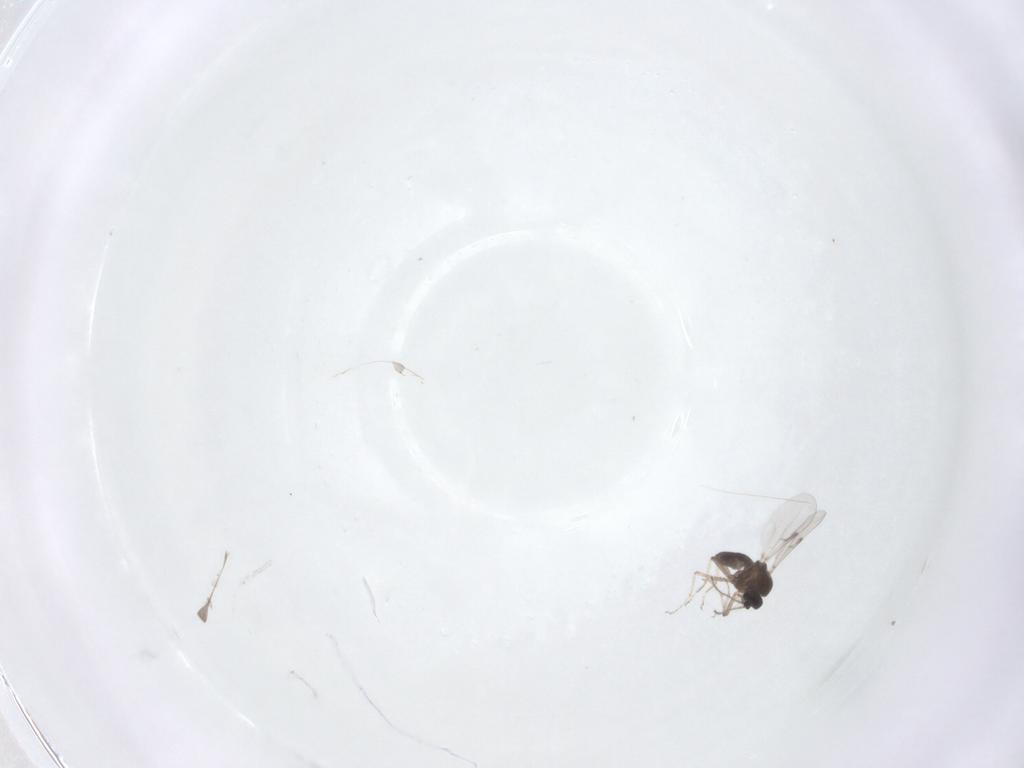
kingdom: Animalia
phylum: Arthropoda
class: Insecta
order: Diptera
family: Ceratopogonidae
